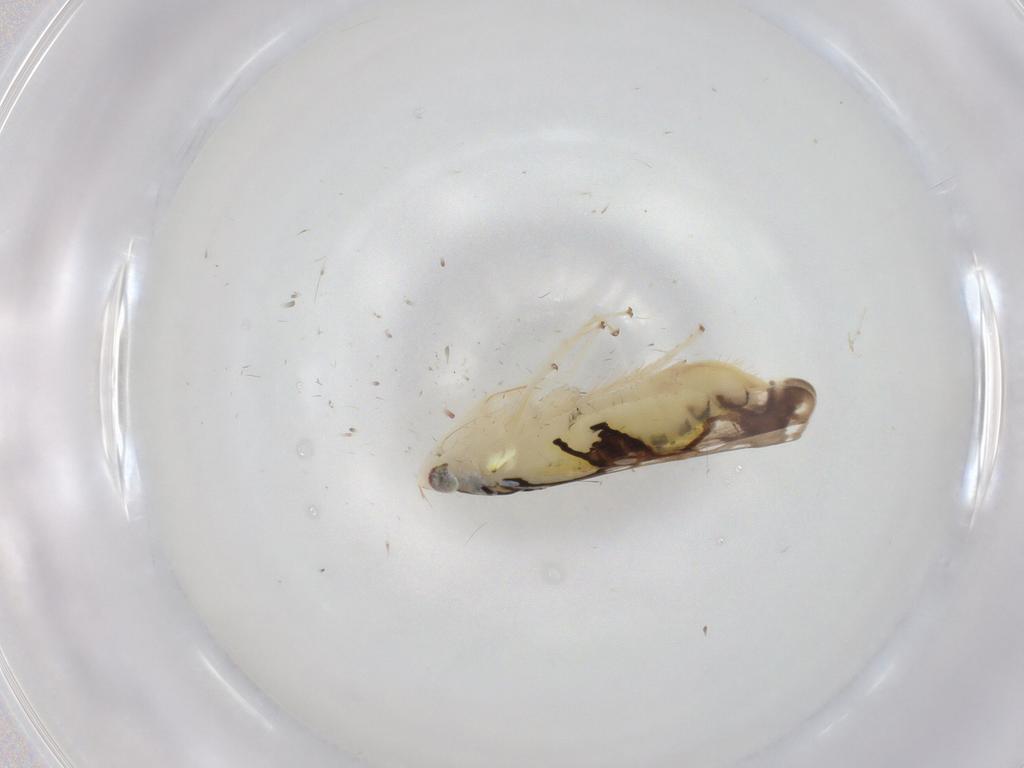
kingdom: Animalia
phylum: Arthropoda
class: Insecta
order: Hemiptera
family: Cicadellidae
